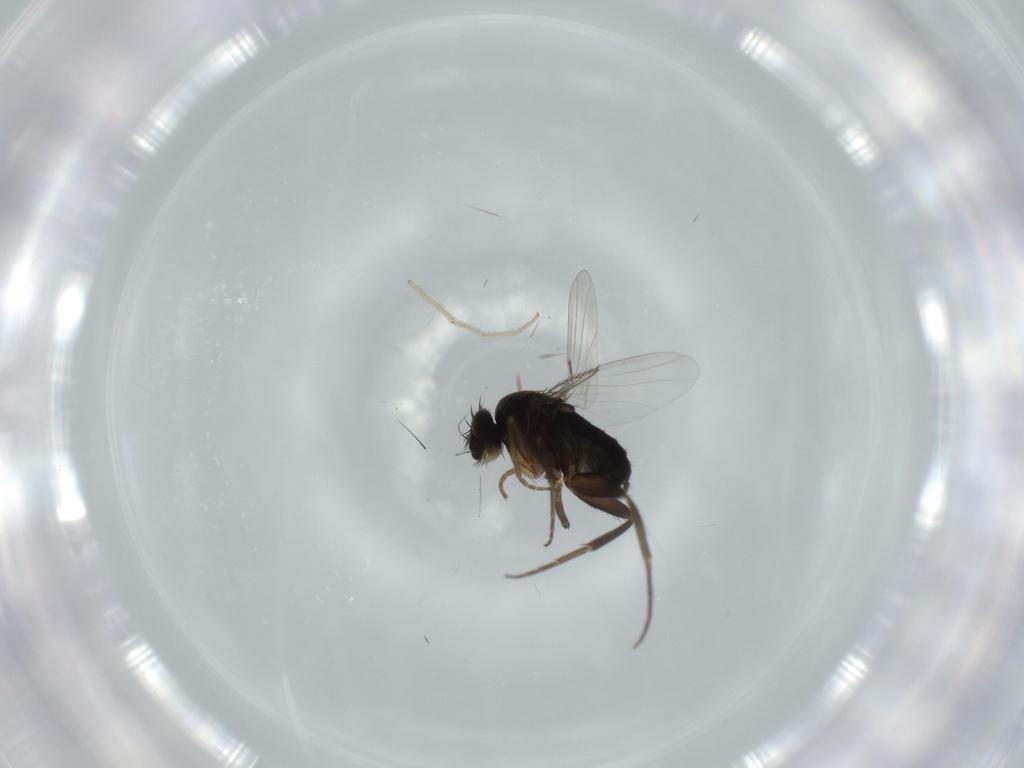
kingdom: Animalia
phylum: Arthropoda
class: Insecta
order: Diptera
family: Phoridae
